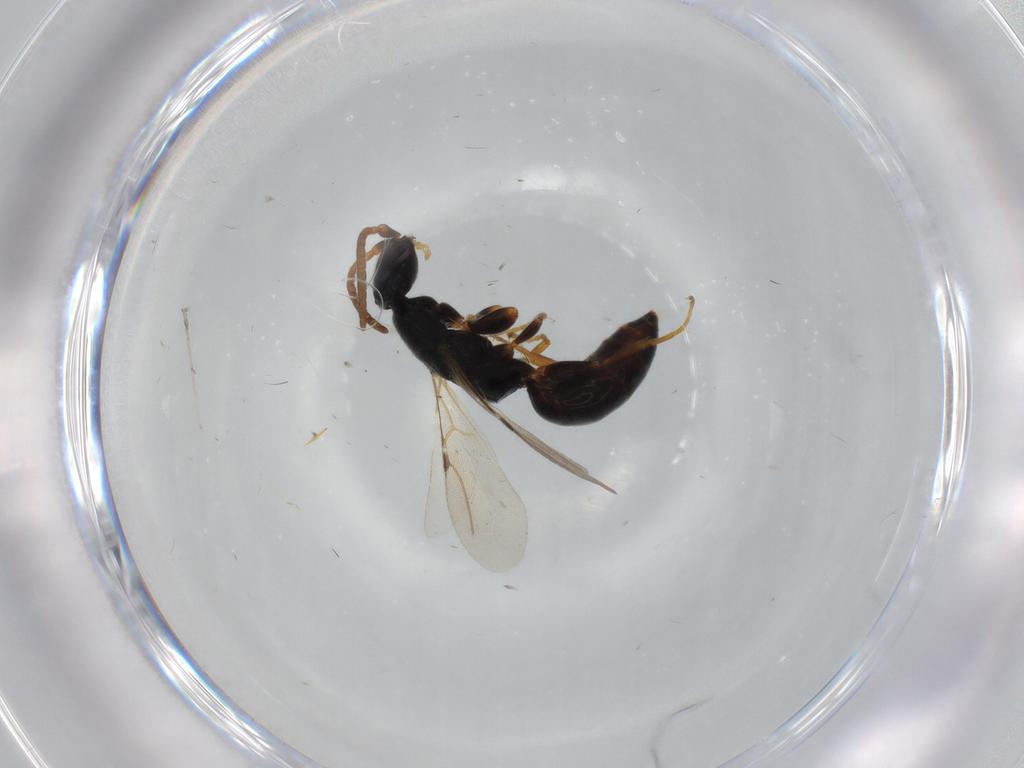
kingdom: Animalia
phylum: Arthropoda
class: Insecta
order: Hymenoptera
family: Bethylidae
